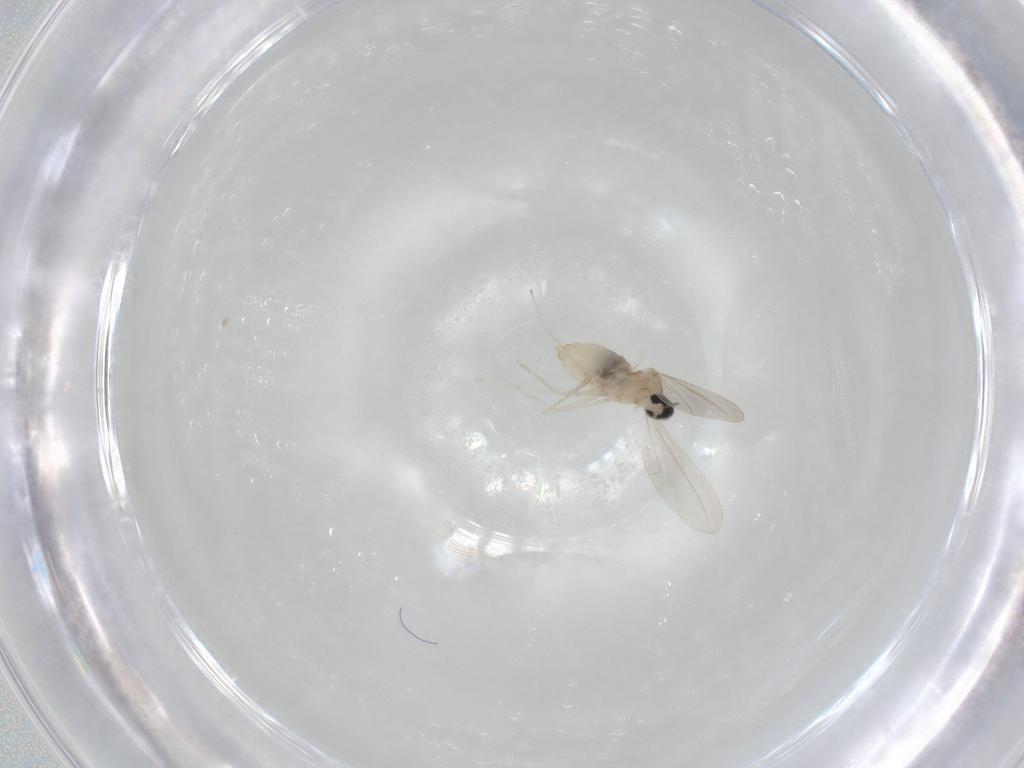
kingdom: Animalia
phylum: Arthropoda
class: Insecta
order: Diptera
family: Cecidomyiidae
